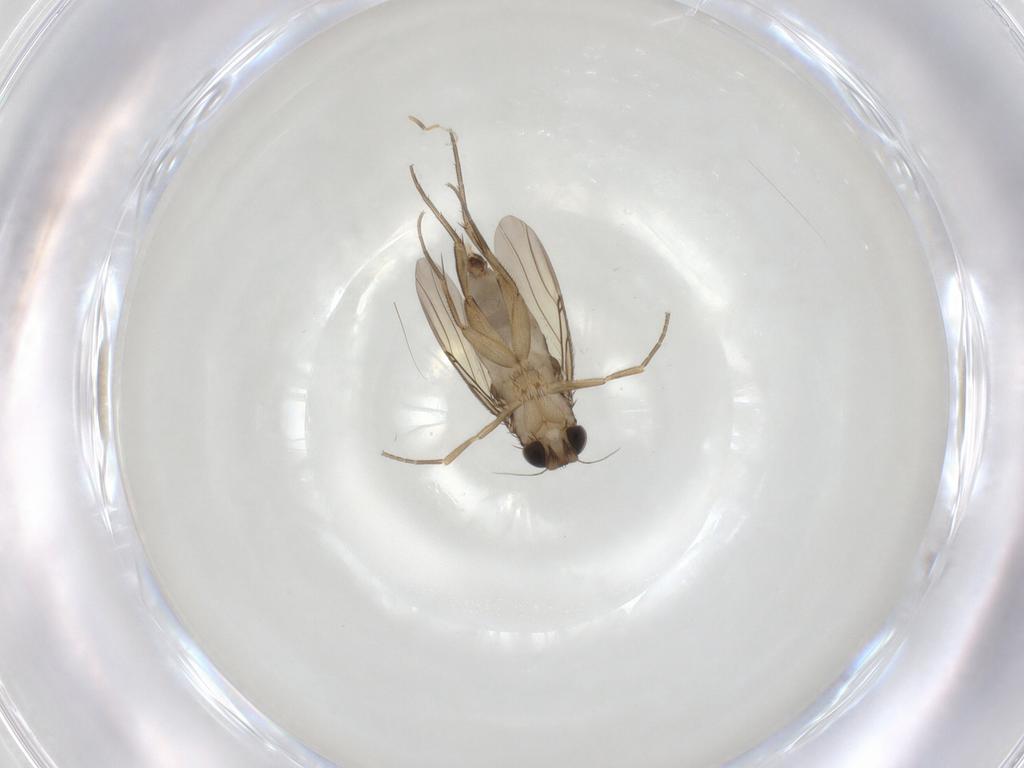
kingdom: Animalia
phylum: Arthropoda
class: Insecta
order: Diptera
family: Phoridae
